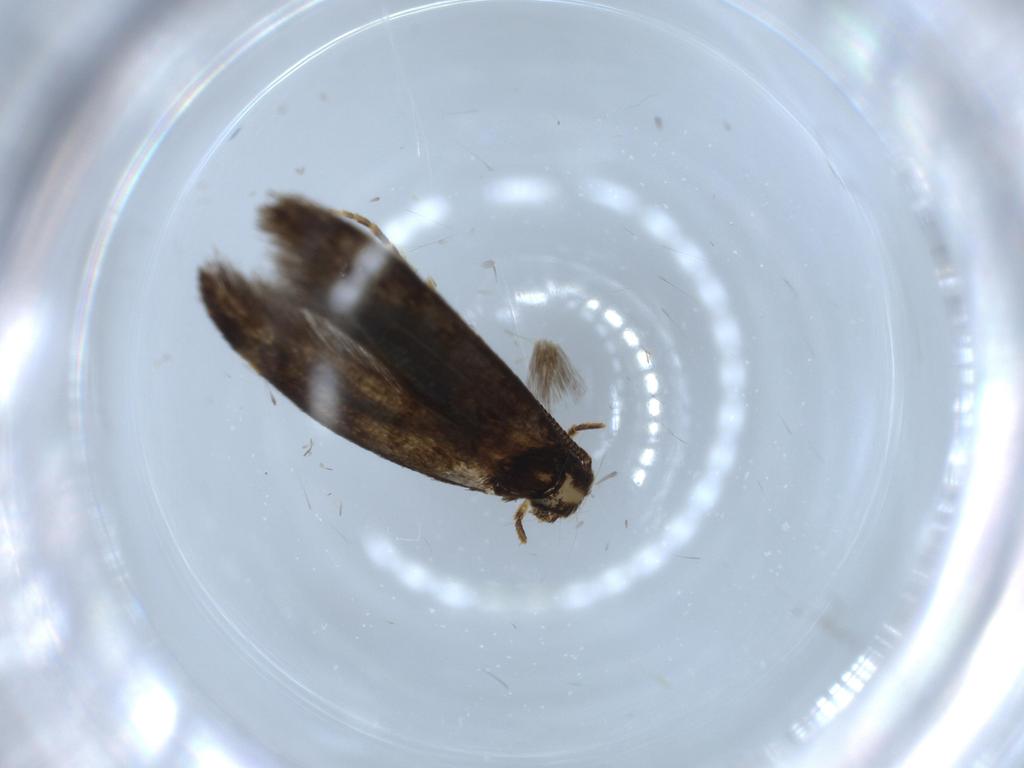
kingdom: Animalia
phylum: Arthropoda
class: Insecta
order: Lepidoptera
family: Tineidae
